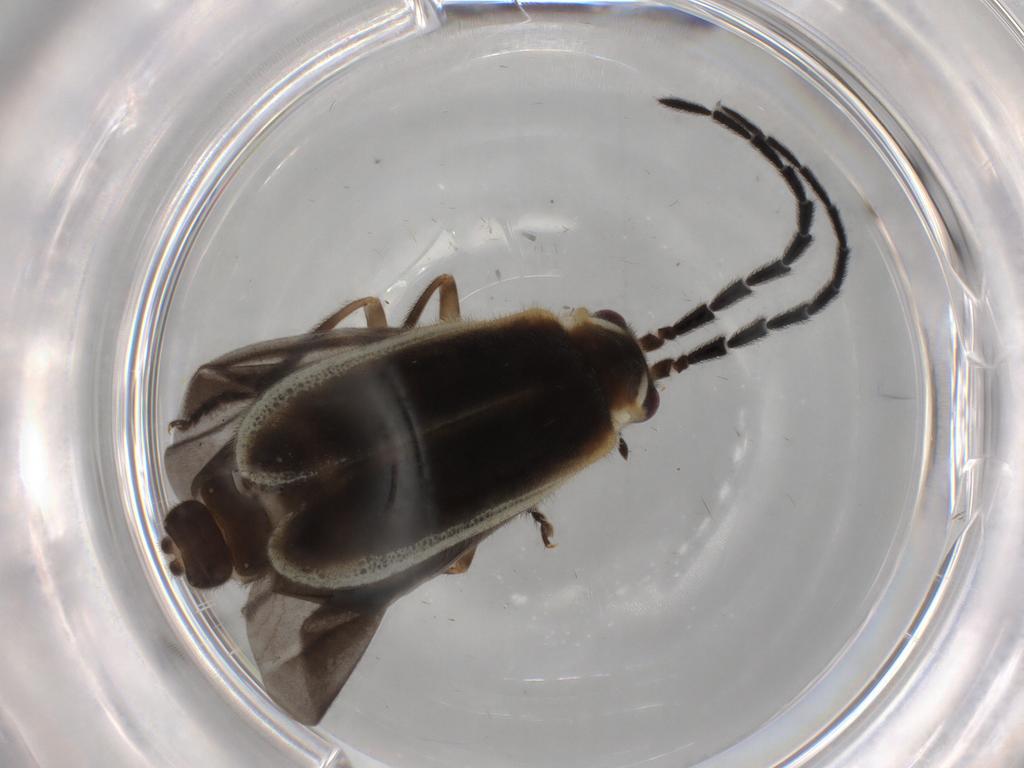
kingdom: Animalia
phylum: Arthropoda
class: Insecta
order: Coleoptera
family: Cantharidae
